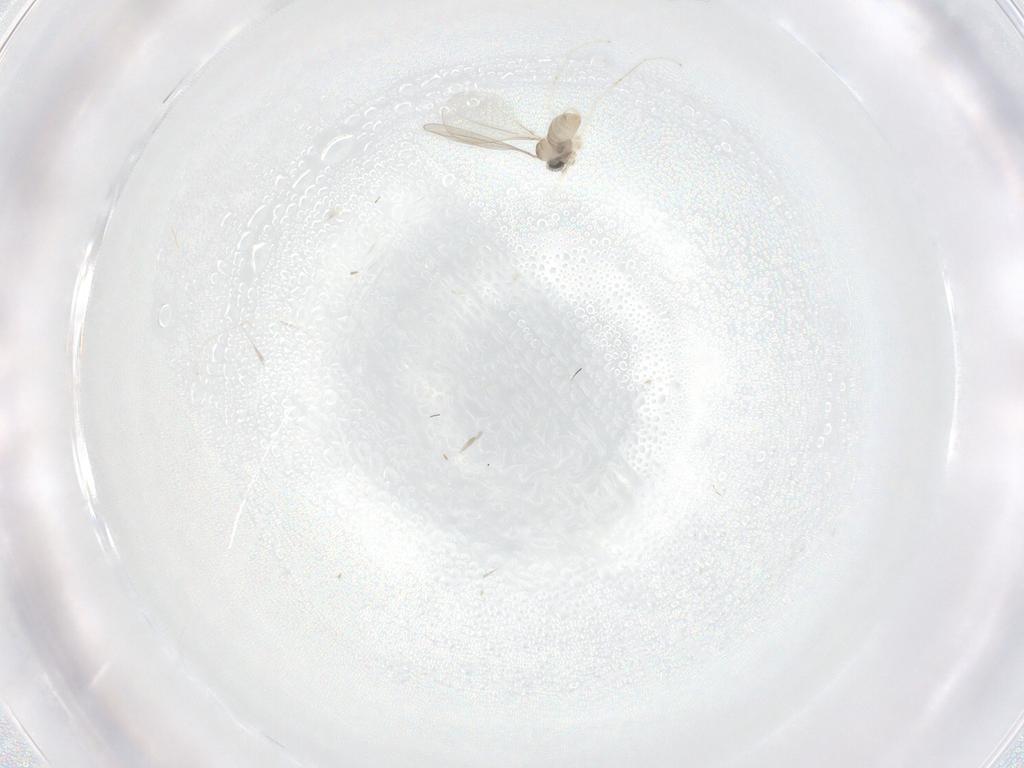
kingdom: Animalia
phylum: Arthropoda
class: Insecta
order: Diptera
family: Cecidomyiidae
